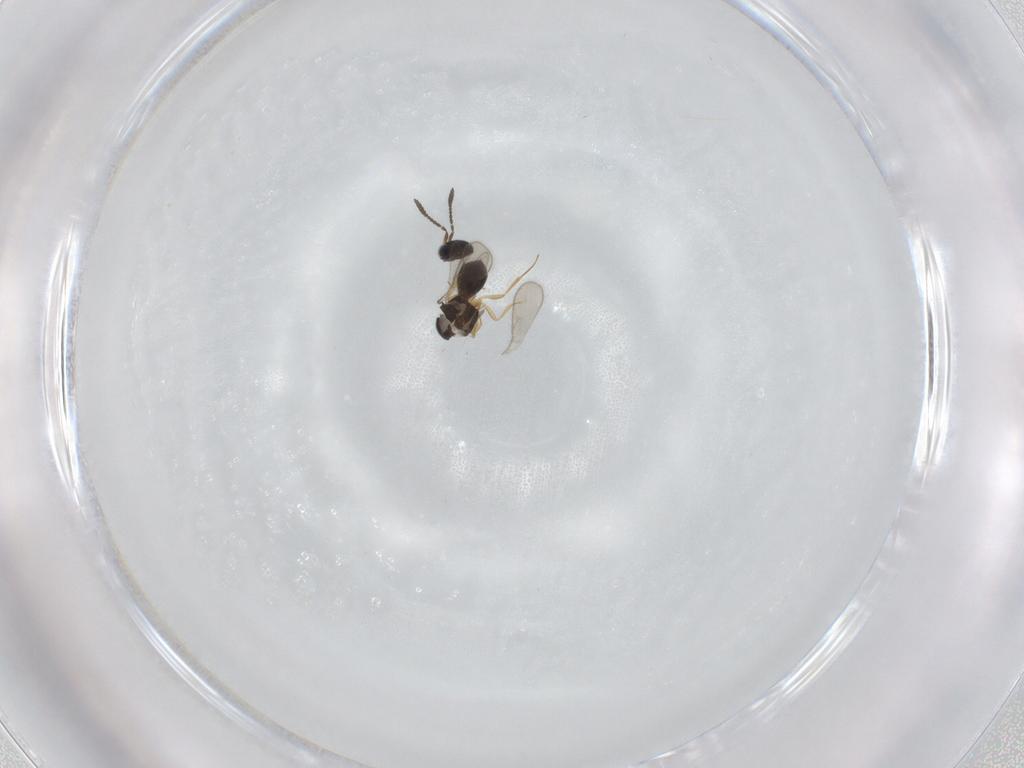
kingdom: Animalia
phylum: Arthropoda
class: Insecta
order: Hymenoptera
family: Scelionidae
